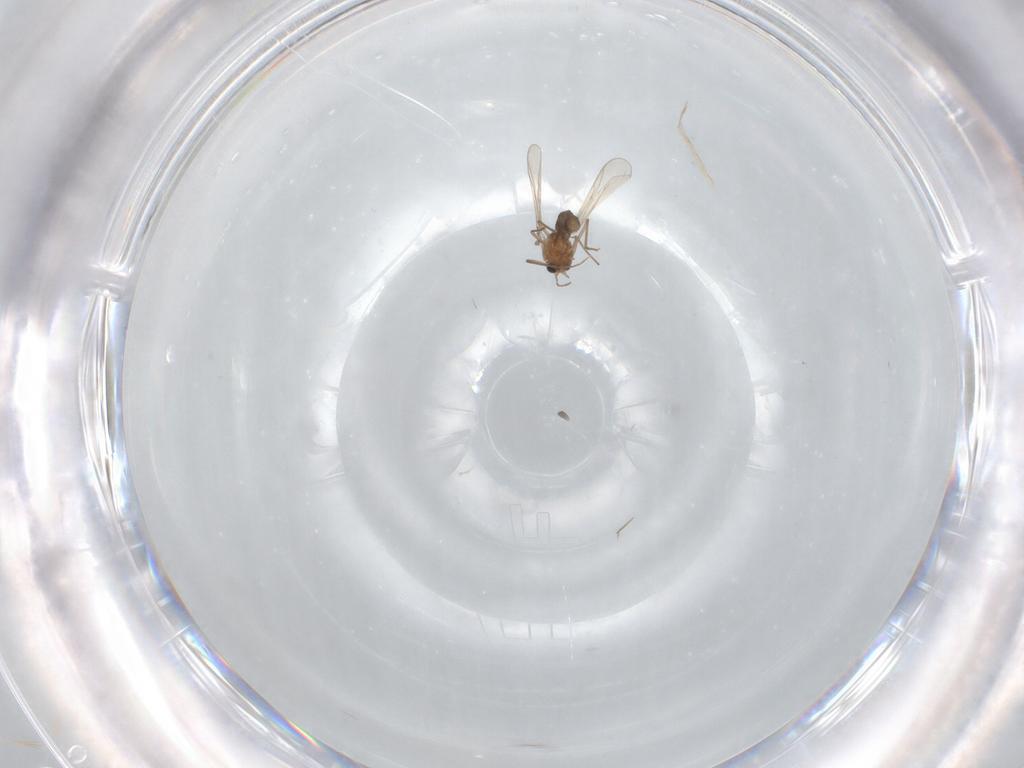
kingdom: Animalia
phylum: Arthropoda
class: Insecta
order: Diptera
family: Chironomidae
